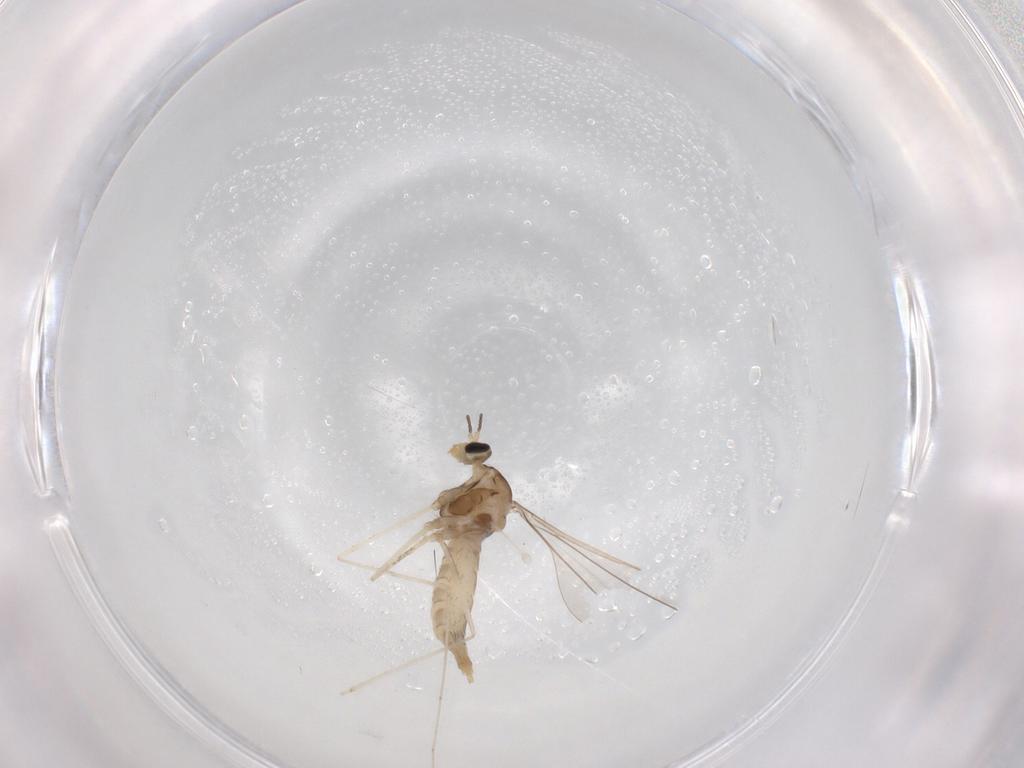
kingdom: Animalia
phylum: Arthropoda
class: Insecta
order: Diptera
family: Cecidomyiidae
